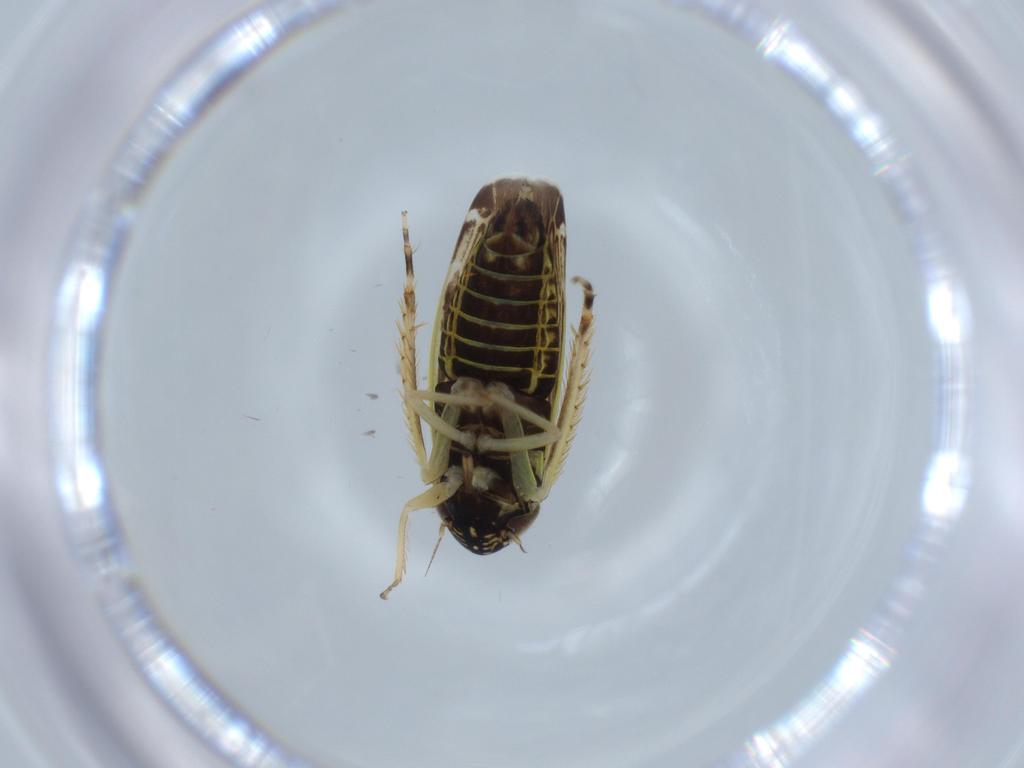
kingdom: Animalia
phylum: Arthropoda
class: Insecta
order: Hemiptera
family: Cicadellidae
